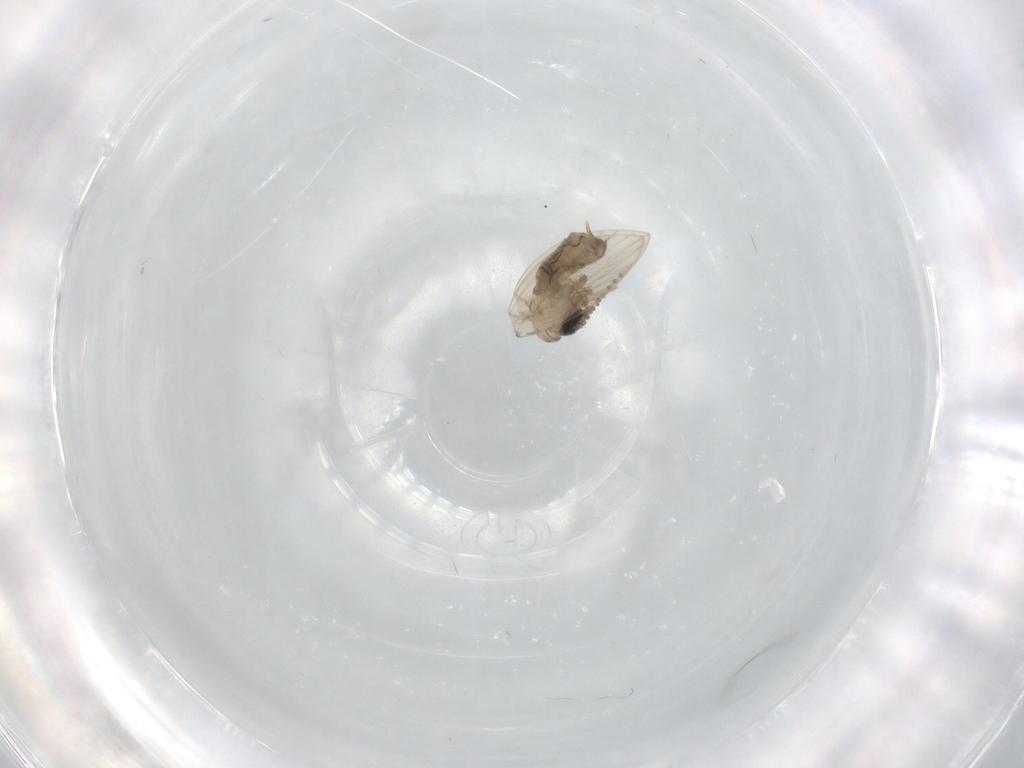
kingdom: Animalia
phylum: Arthropoda
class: Insecta
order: Diptera
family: Psychodidae
